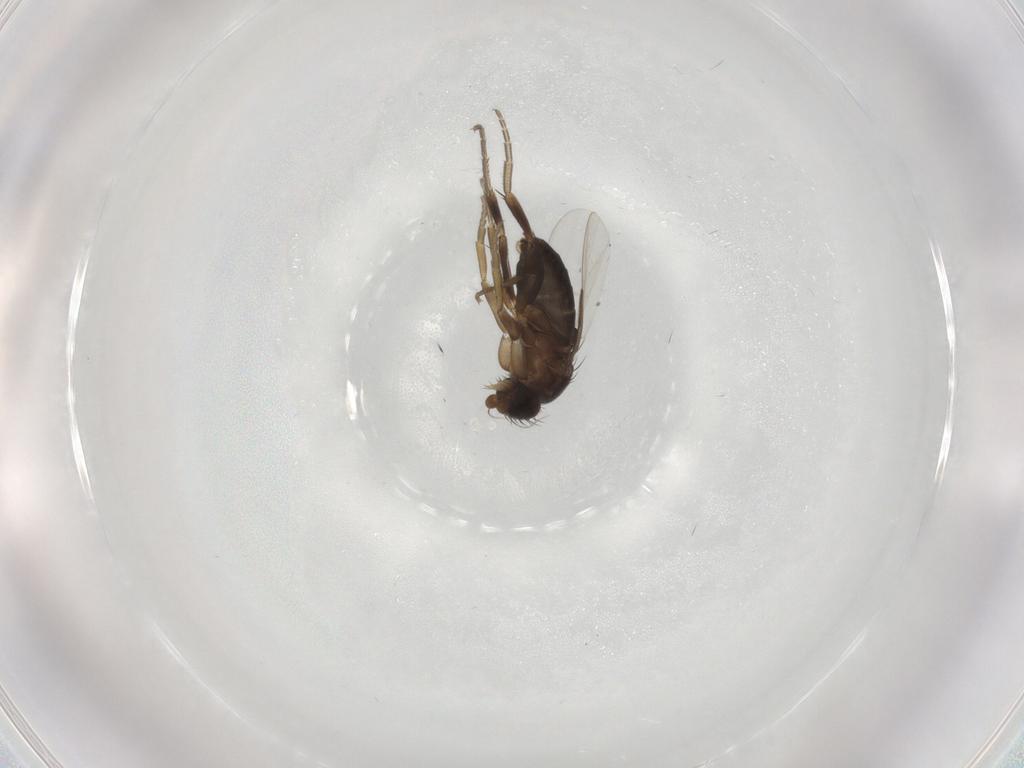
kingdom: Animalia
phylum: Arthropoda
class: Insecta
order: Diptera
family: Phoridae
